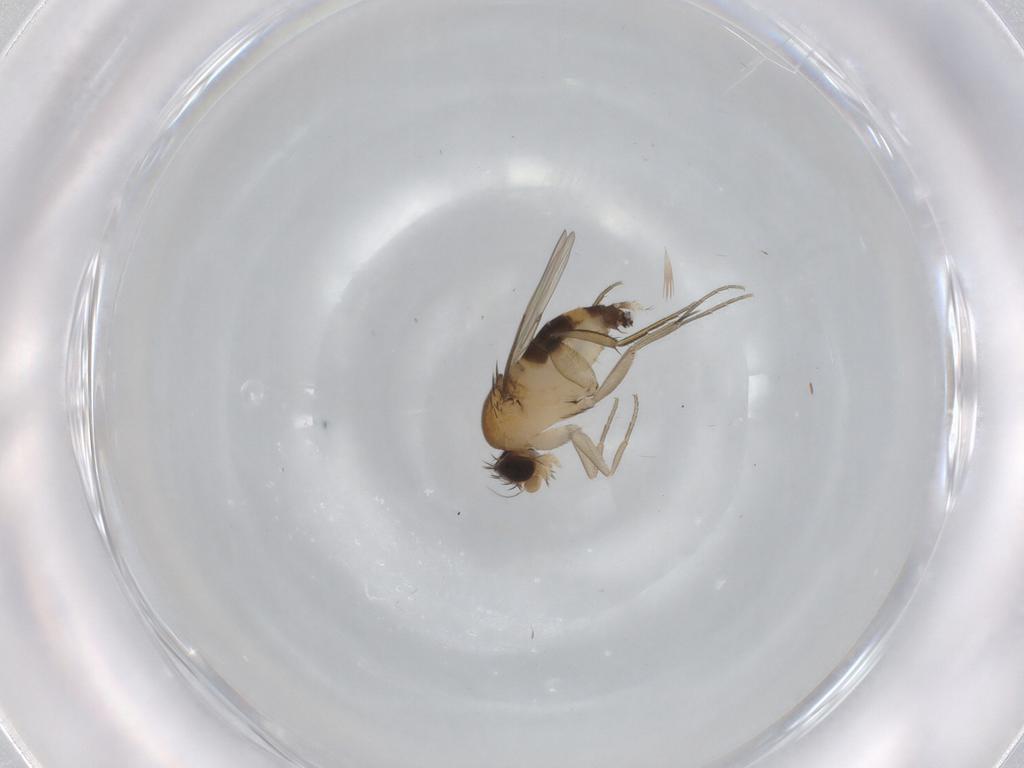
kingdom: Animalia
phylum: Arthropoda
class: Insecta
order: Diptera
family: Phoridae
